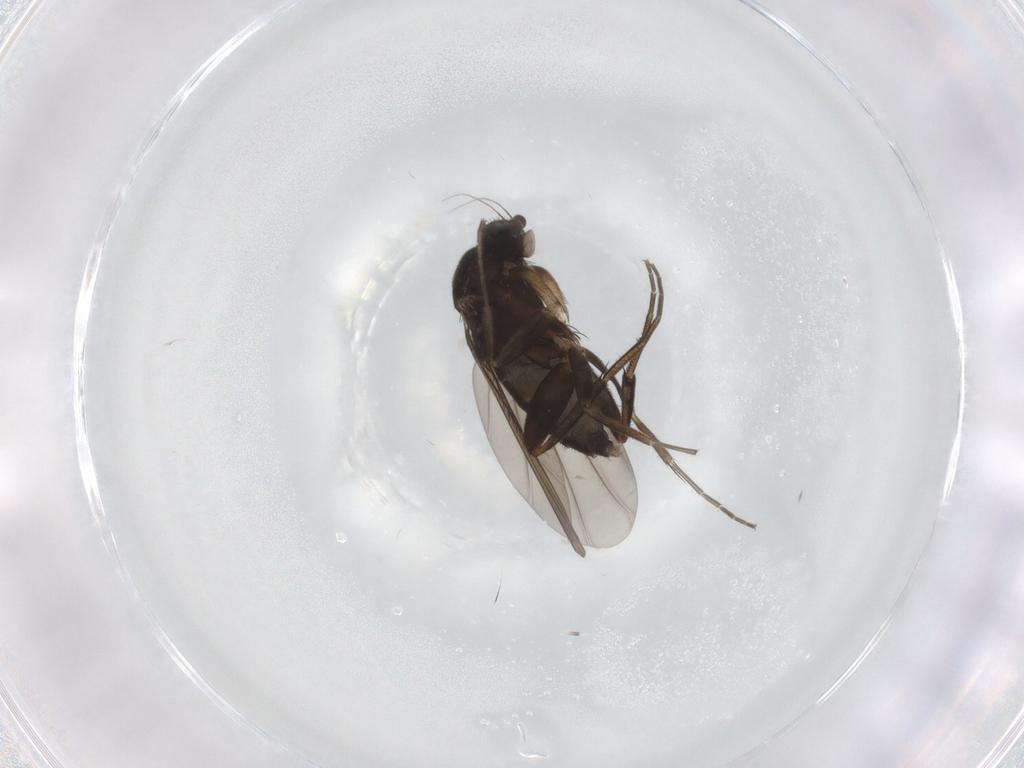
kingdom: Animalia
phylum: Arthropoda
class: Insecta
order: Diptera
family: Phoridae
